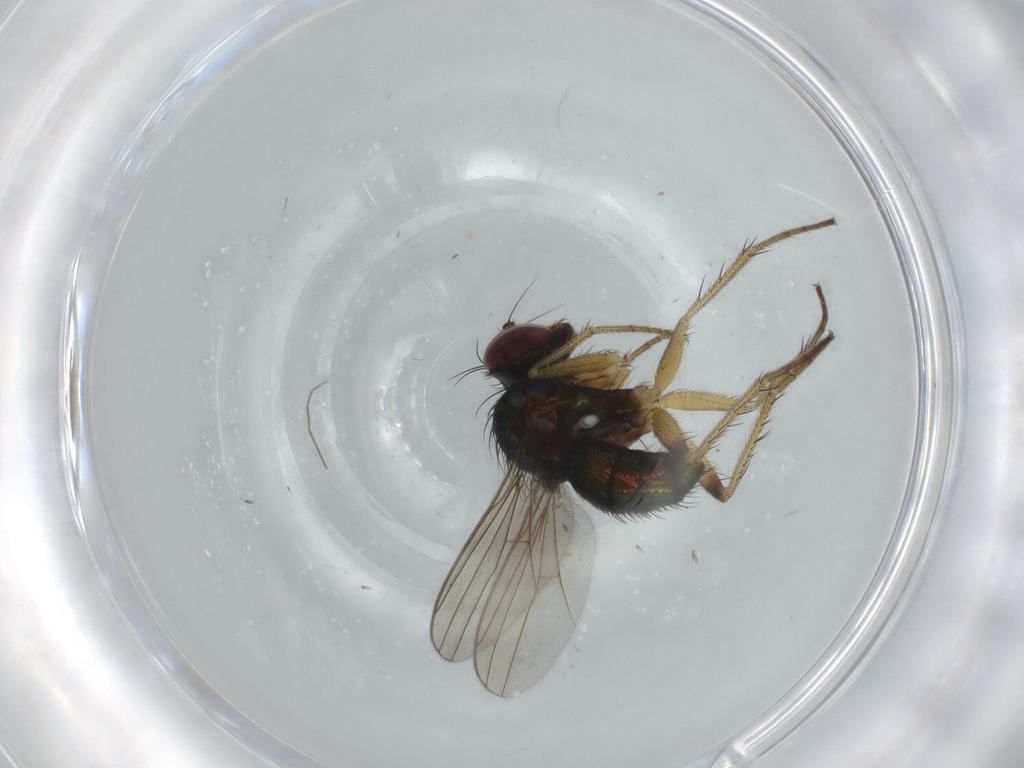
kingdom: Animalia
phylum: Arthropoda
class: Insecta
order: Diptera
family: Dolichopodidae
